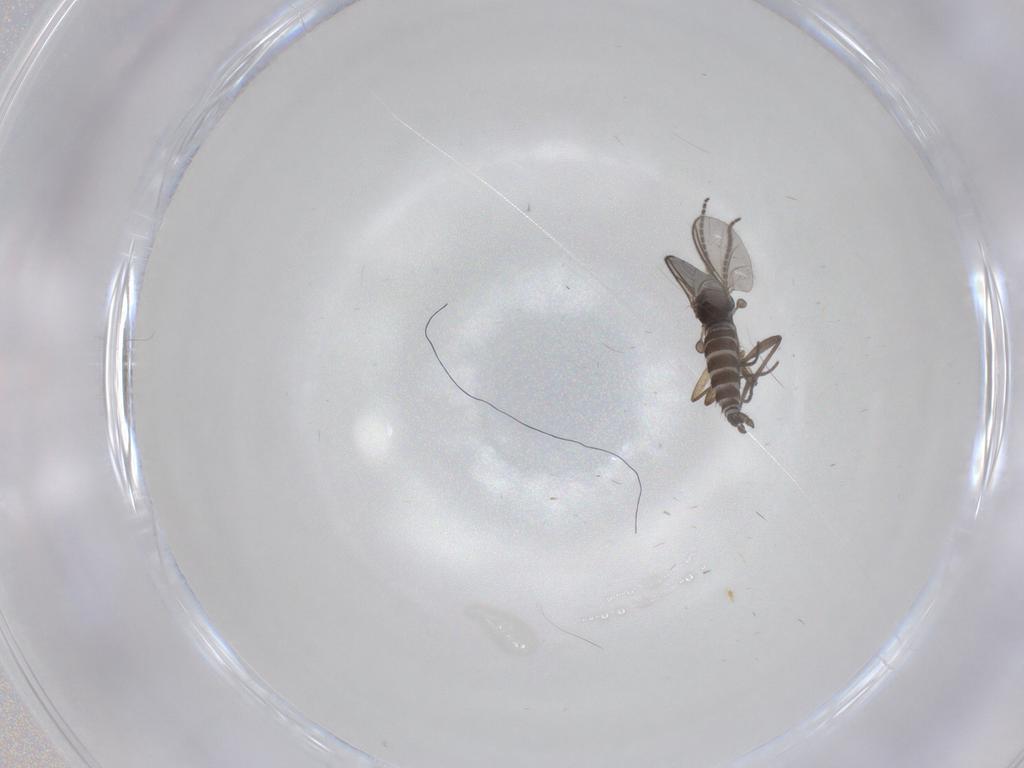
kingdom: Animalia
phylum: Arthropoda
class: Insecta
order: Diptera
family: Sciaridae
